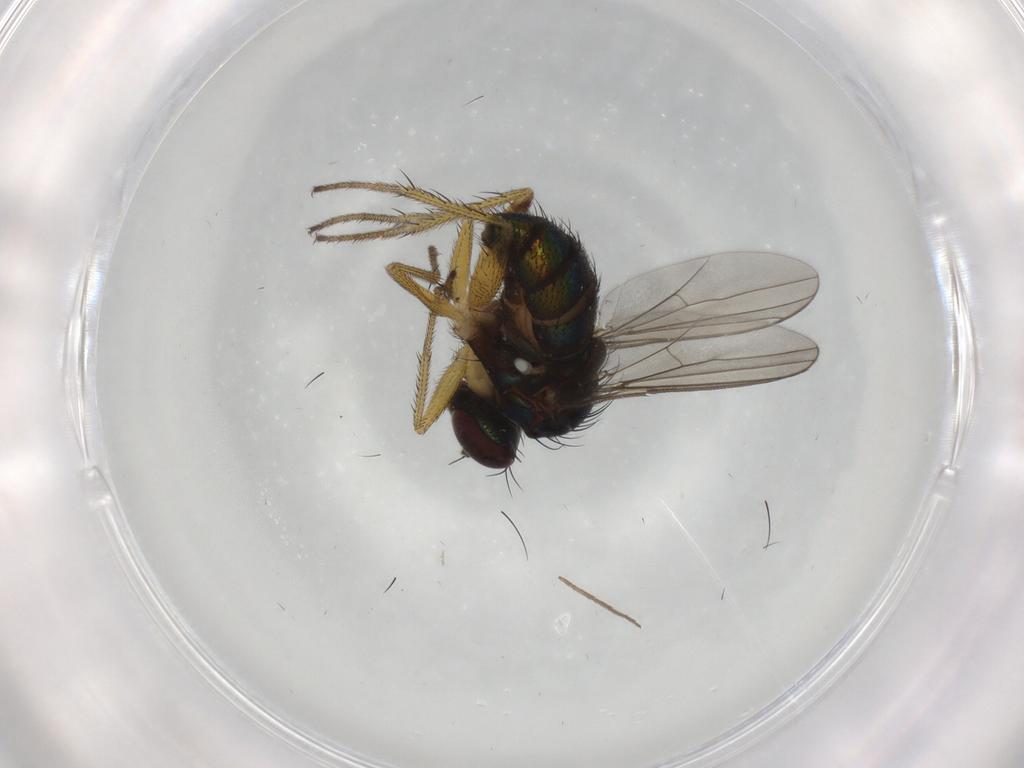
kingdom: Animalia
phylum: Arthropoda
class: Insecta
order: Diptera
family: Dolichopodidae
